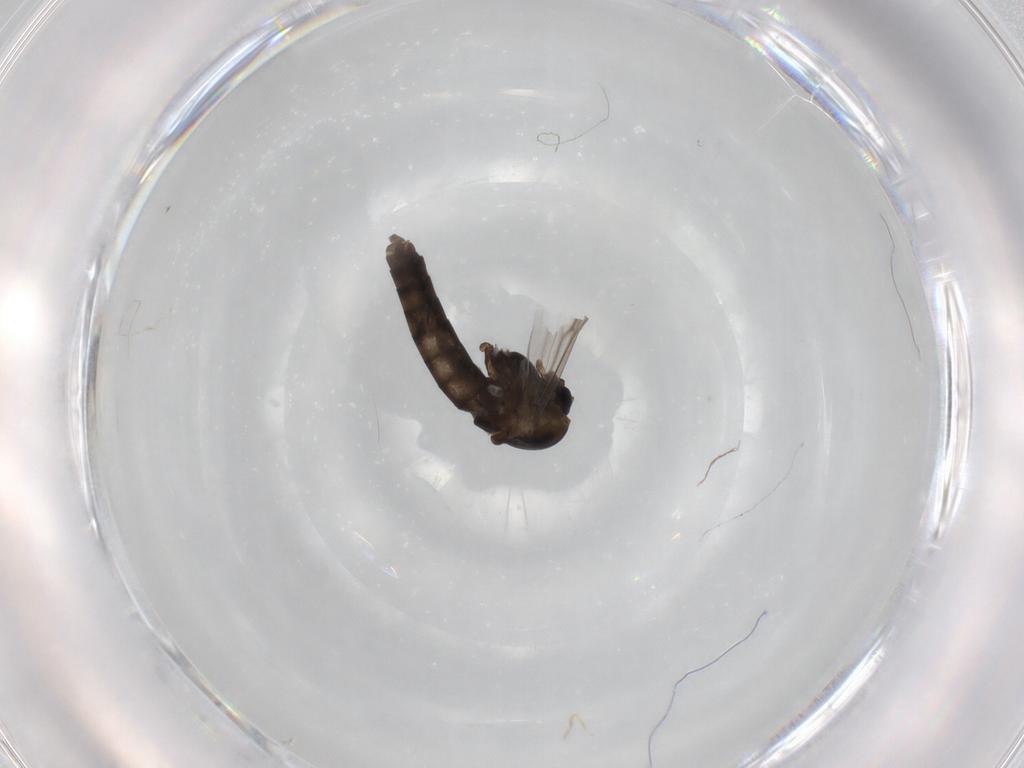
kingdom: Animalia
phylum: Arthropoda
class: Insecta
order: Diptera
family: Chironomidae
